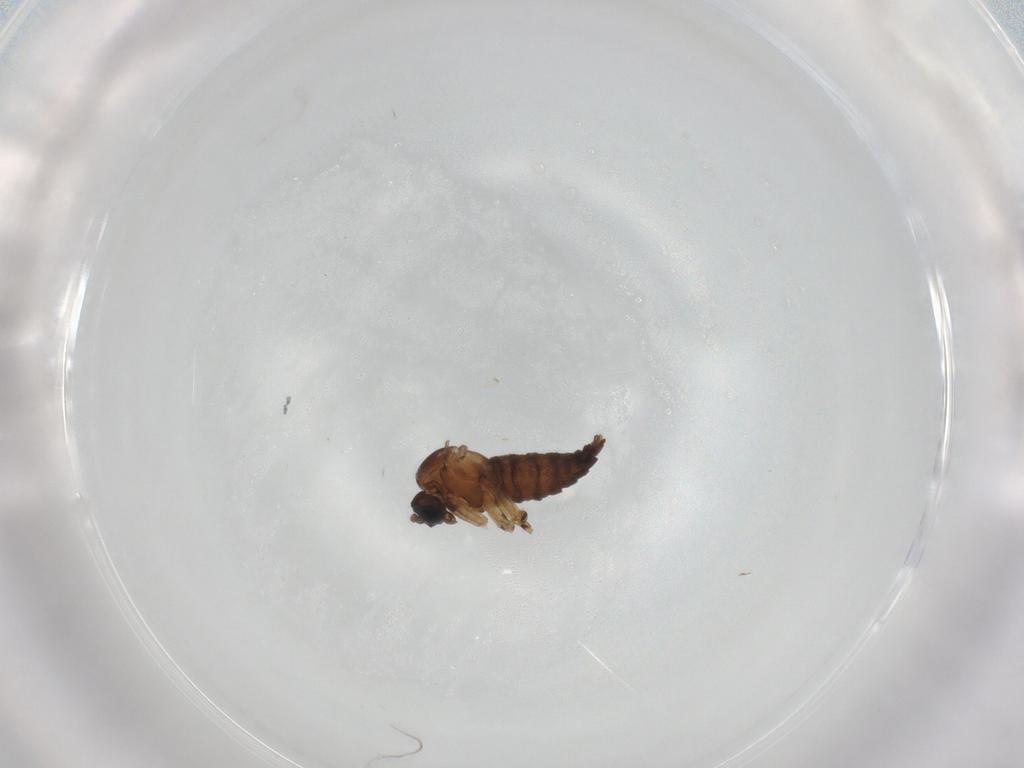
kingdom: Animalia
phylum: Arthropoda
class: Insecta
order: Diptera
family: Sciaridae
